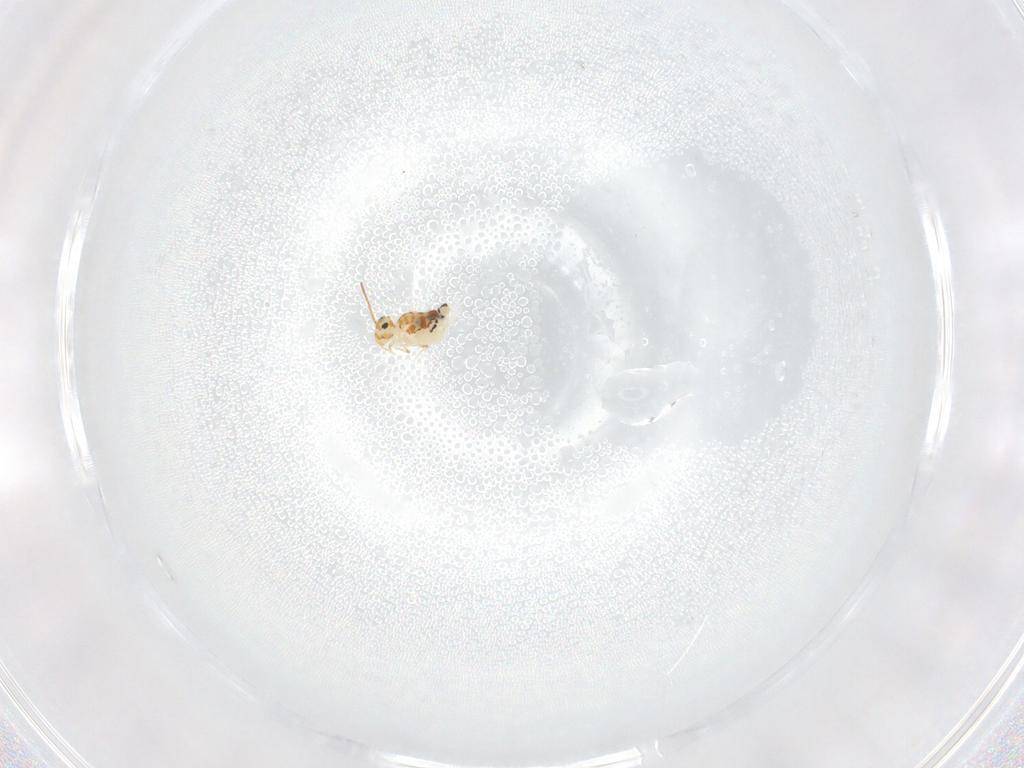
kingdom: Animalia
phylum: Arthropoda
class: Collembola
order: Symphypleona
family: Bourletiellidae
